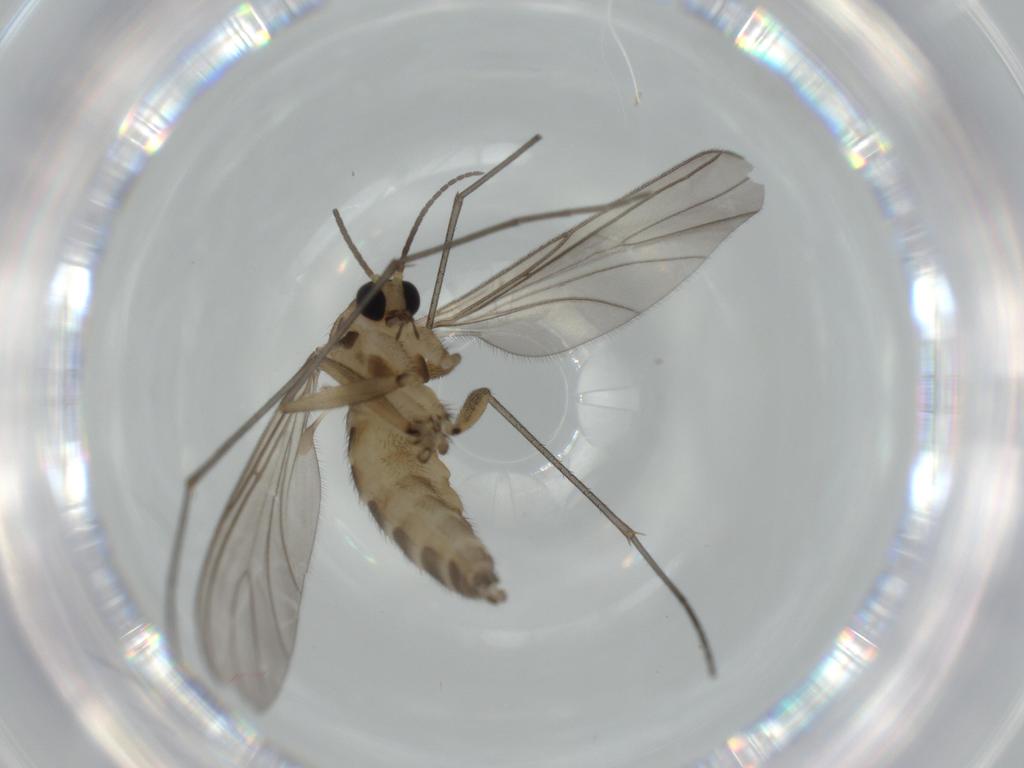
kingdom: Animalia
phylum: Arthropoda
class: Insecta
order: Diptera
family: Sciaridae
